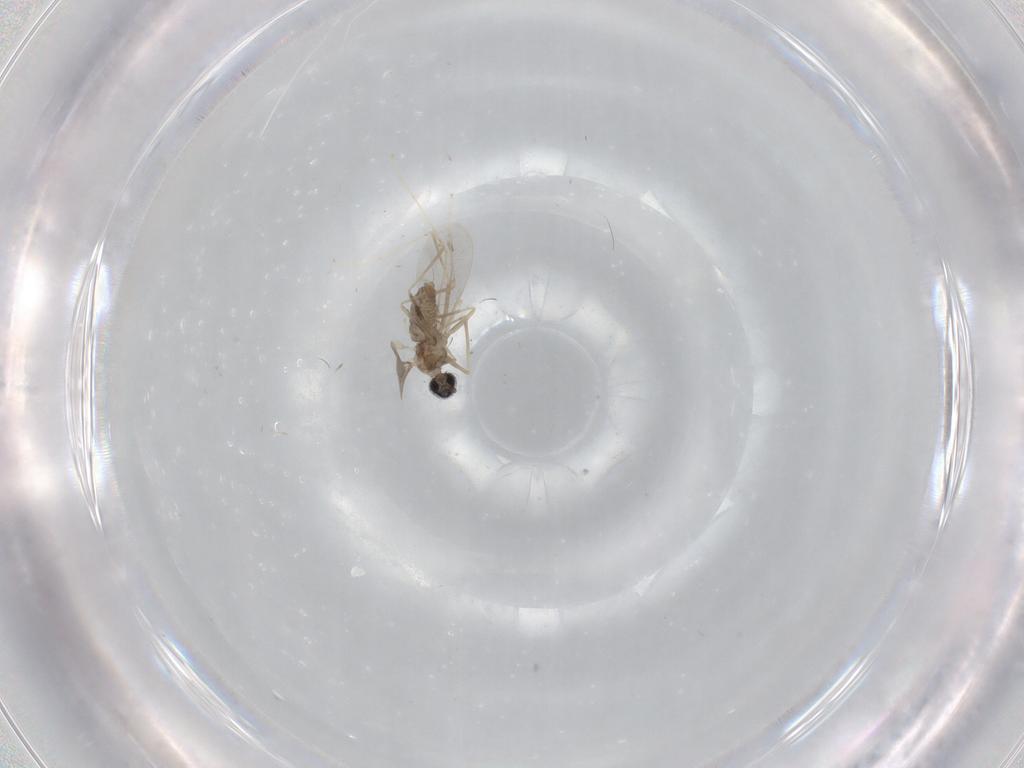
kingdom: Animalia
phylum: Arthropoda
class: Insecta
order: Diptera
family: Cecidomyiidae
